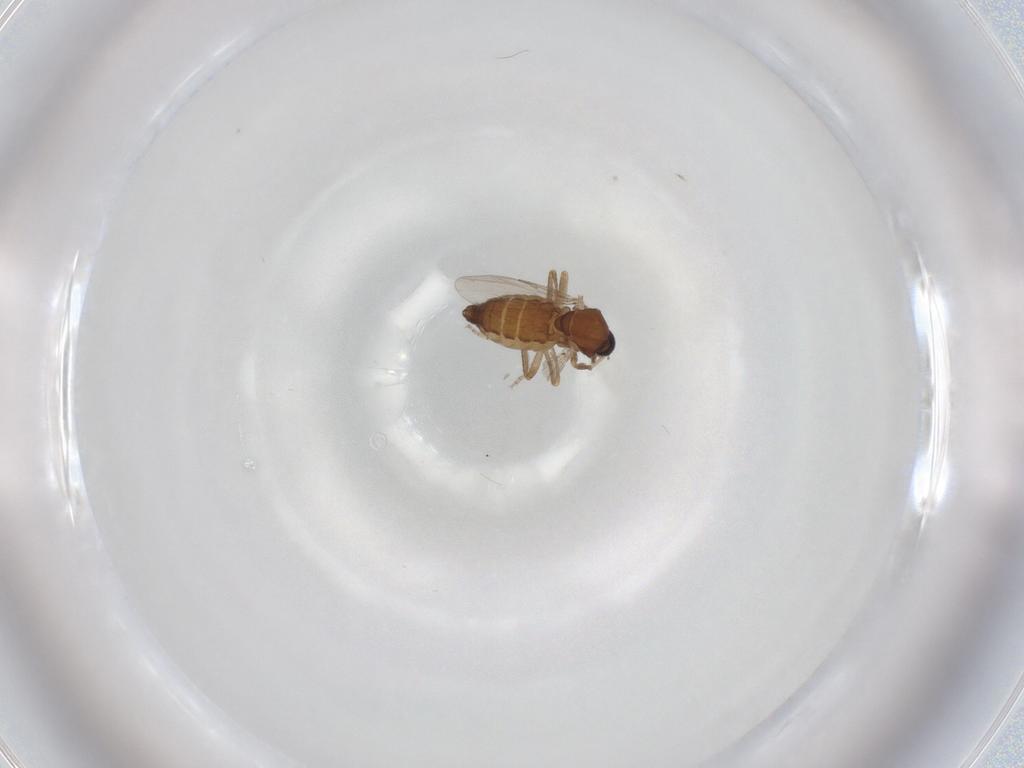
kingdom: Animalia
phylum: Arthropoda
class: Insecta
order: Diptera
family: Ceratopogonidae
